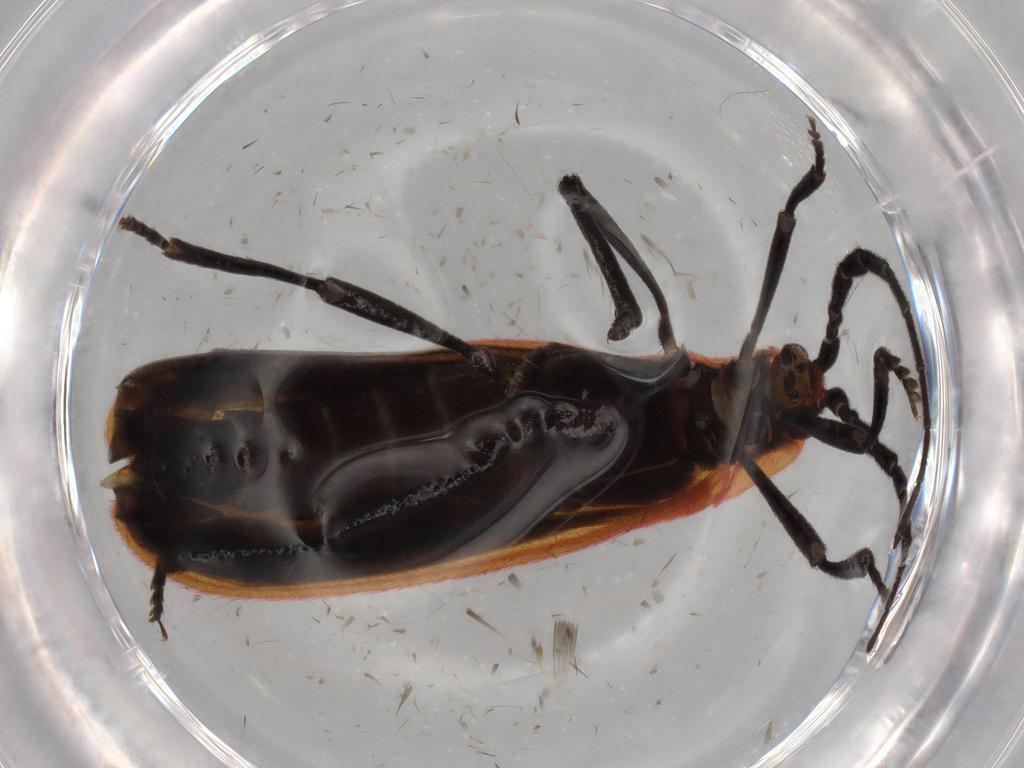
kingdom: Animalia
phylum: Arthropoda
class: Insecta
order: Coleoptera
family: Lycidae
